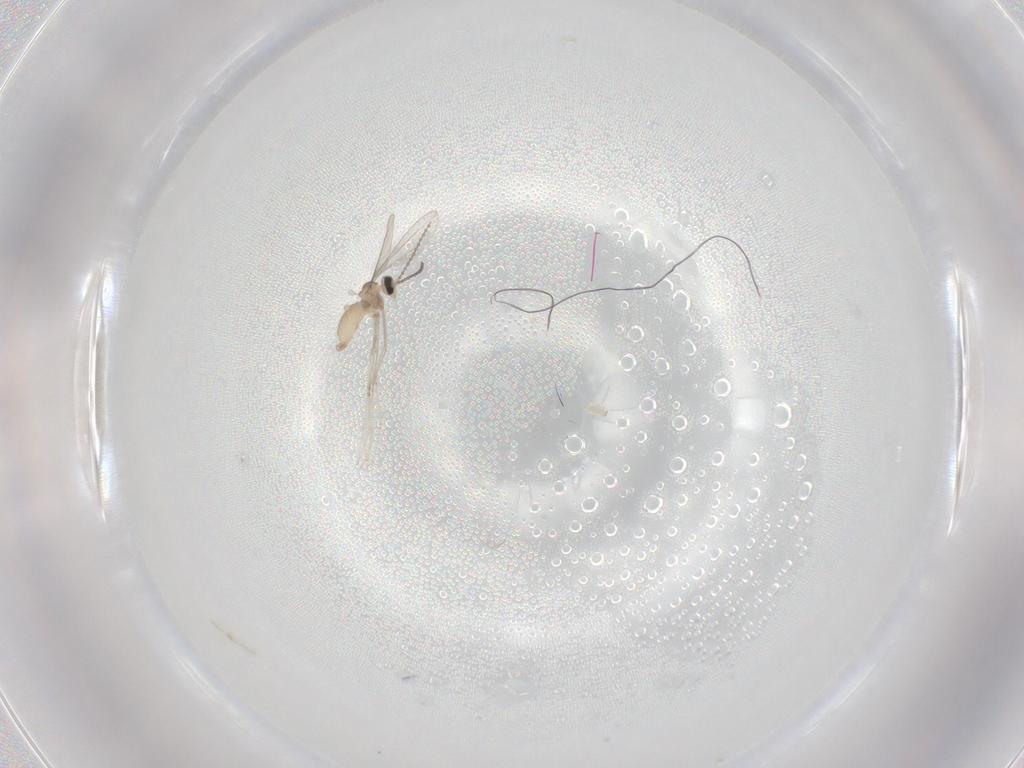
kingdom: Animalia
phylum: Arthropoda
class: Insecta
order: Diptera
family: Cecidomyiidae
